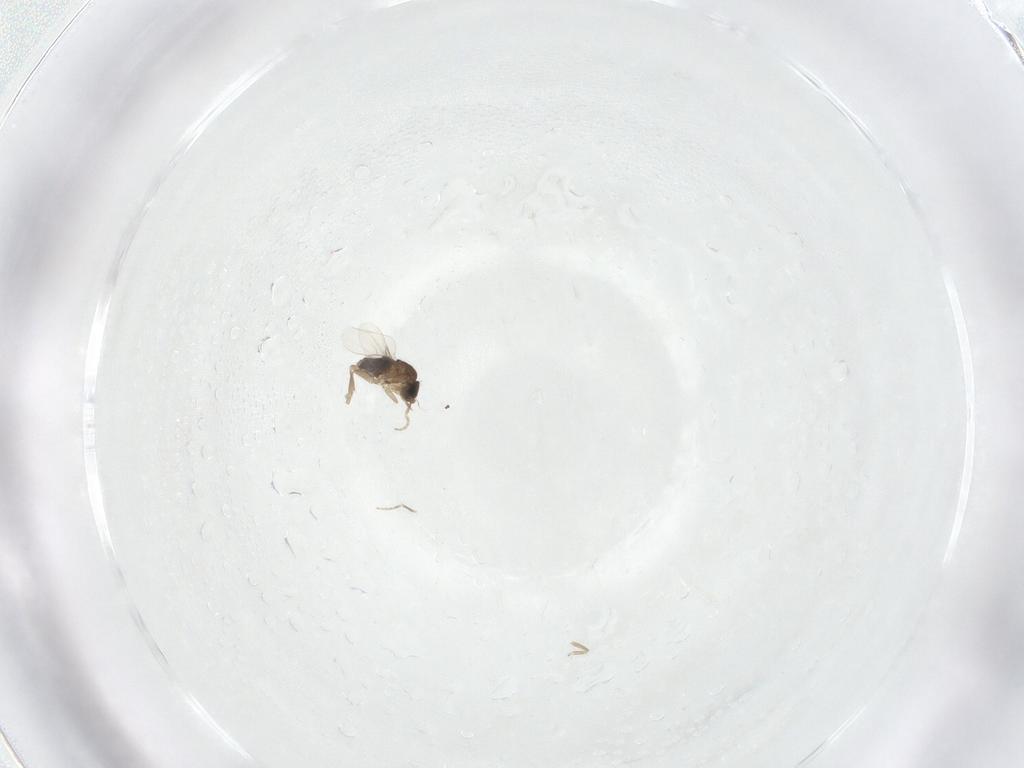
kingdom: Animalia
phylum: Arthropoda
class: Insecta
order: Diptera
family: Phoridae
